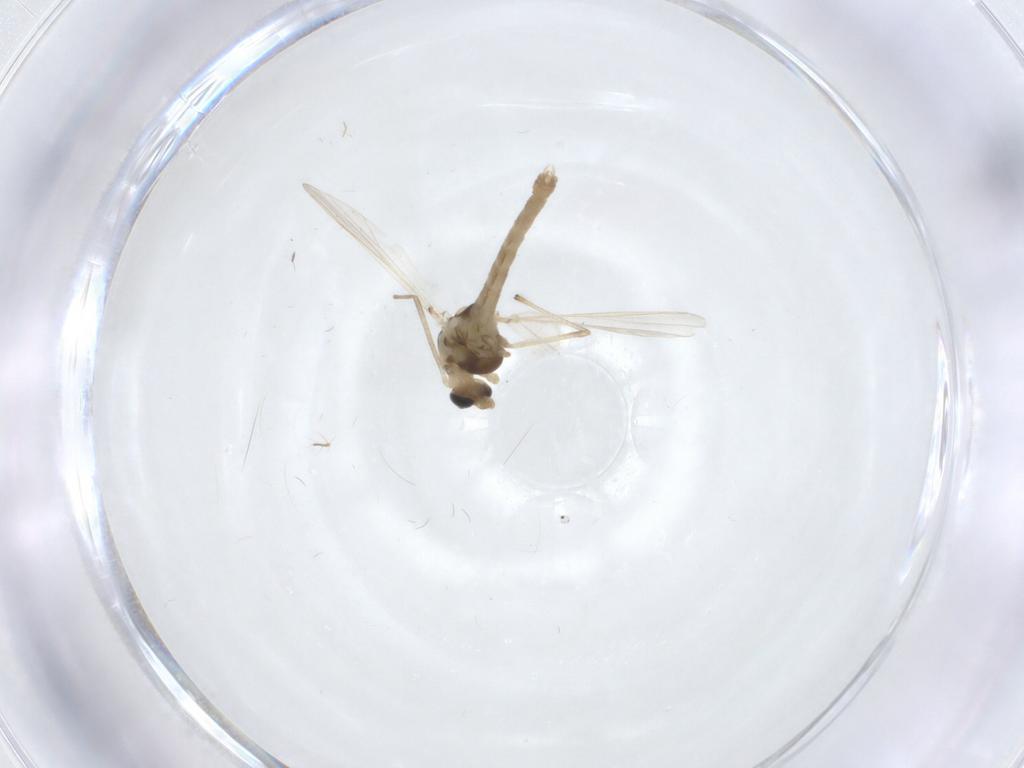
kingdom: Animalia
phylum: Arthropoda
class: Insecta
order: Diptera
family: Chironomidae
